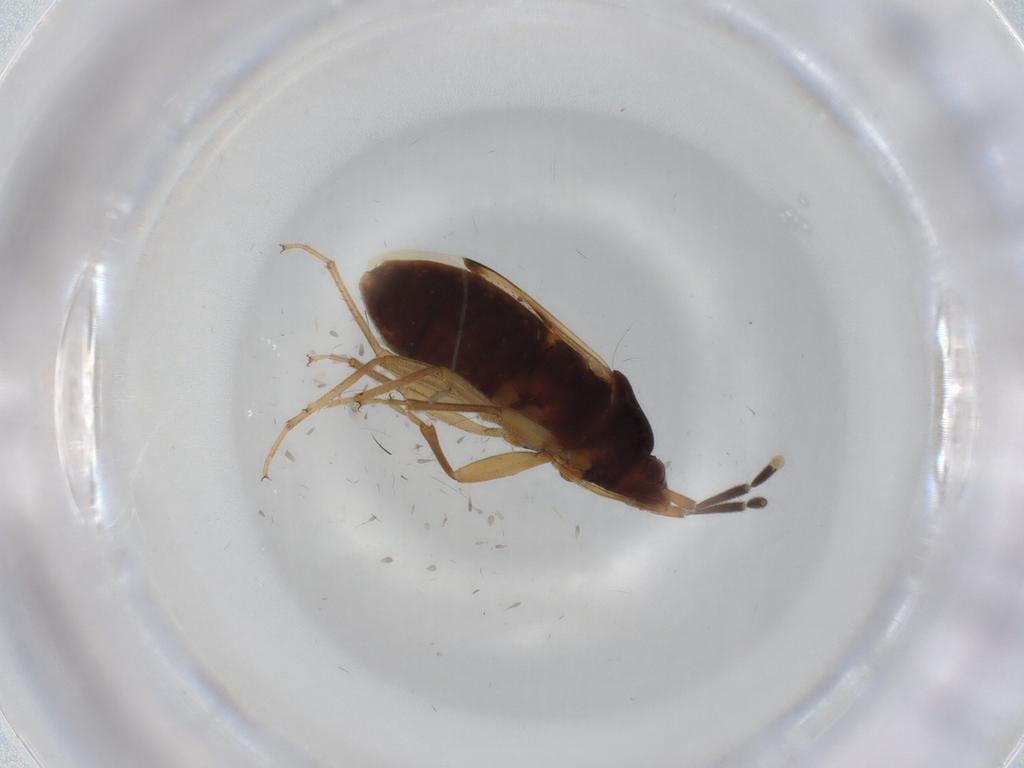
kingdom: Animalia
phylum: Arthropoda
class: Insecta
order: Hemiptera
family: Rhyparochromidae
